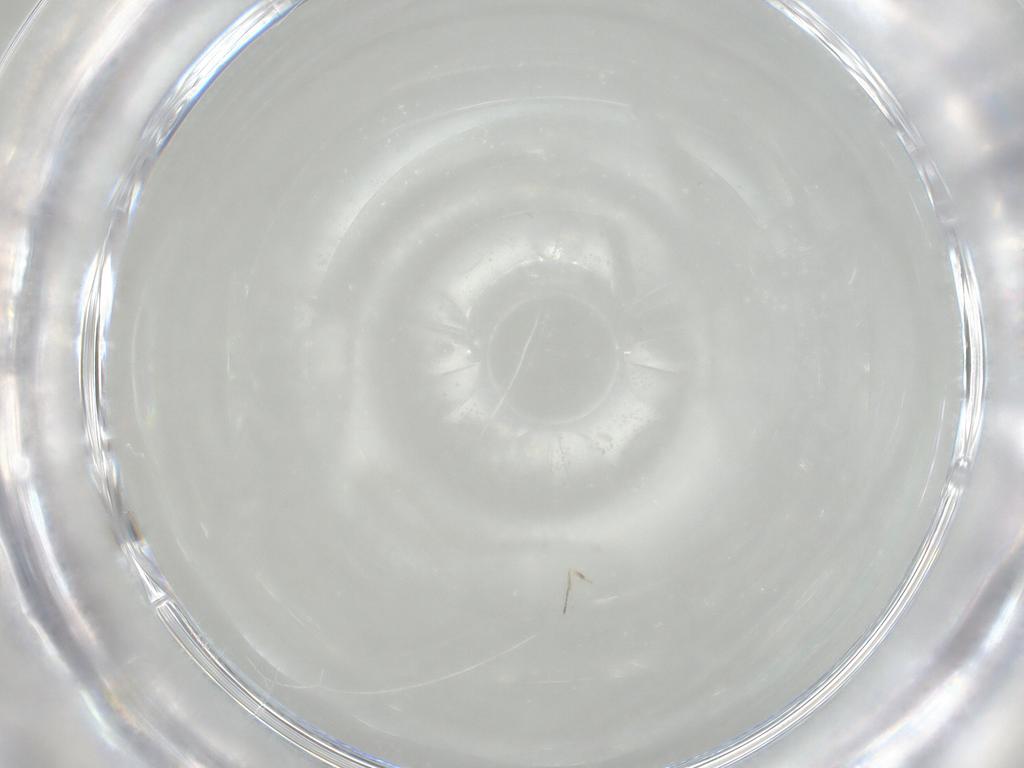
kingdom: Animalia
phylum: Arthropoda
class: Insecta
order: Hymenoptera
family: Mymaridae
